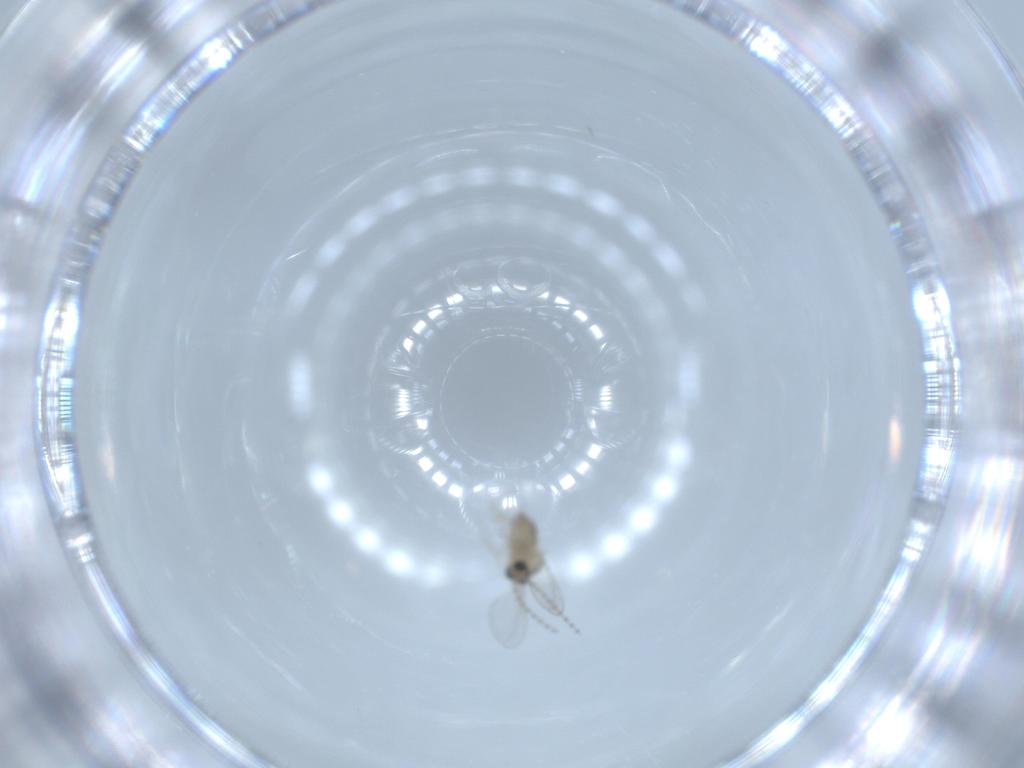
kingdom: Animalia
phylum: Arthropoda
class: Insecta
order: Diptera
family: Cecidomyiidae
